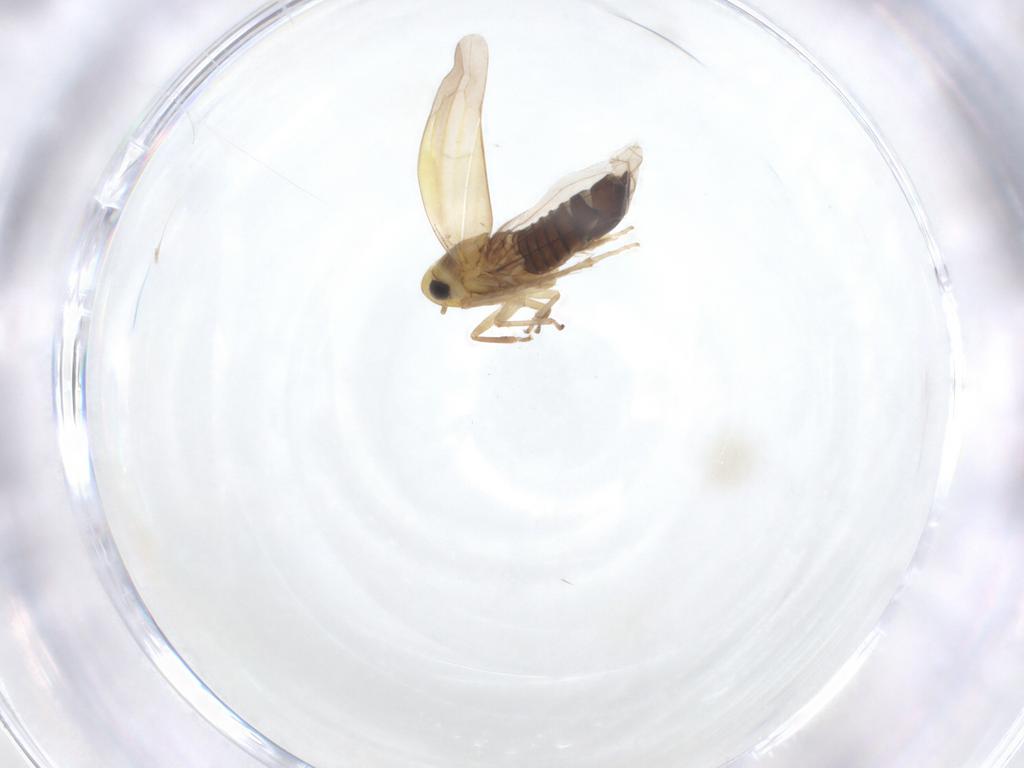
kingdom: Animalia
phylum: Arthropoda
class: Insecta
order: Hemiptera
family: Cicadellidae
